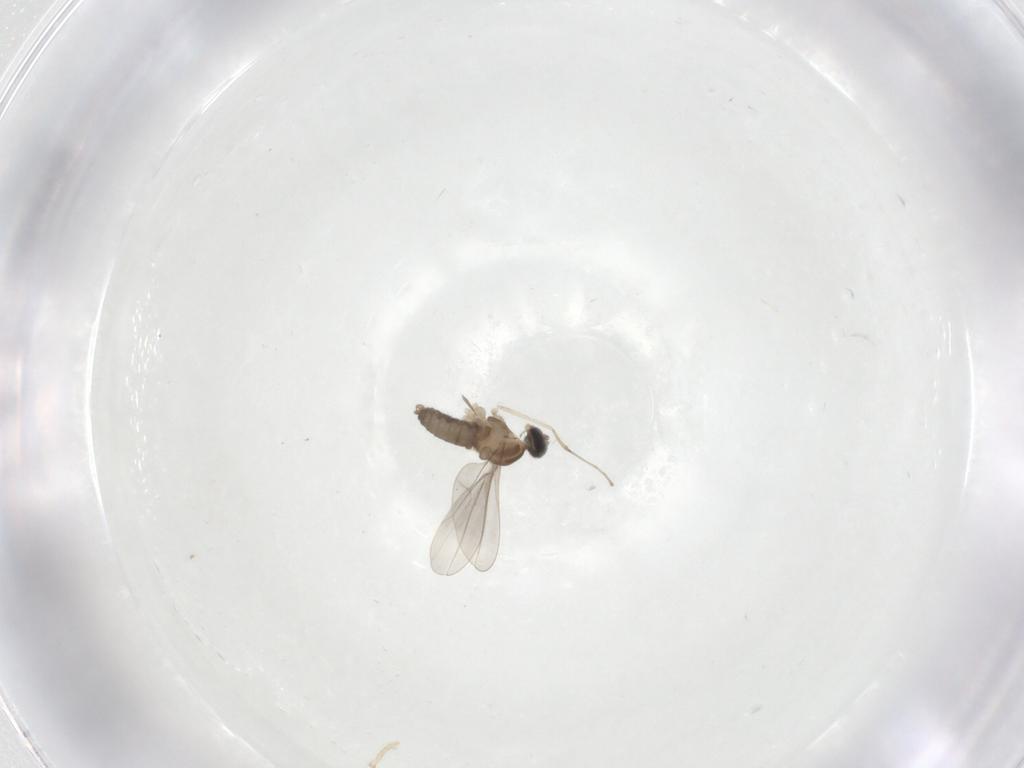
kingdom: Animalia
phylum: Arthropoda
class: Insecta
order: Diptera
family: Cecidomyiidae
